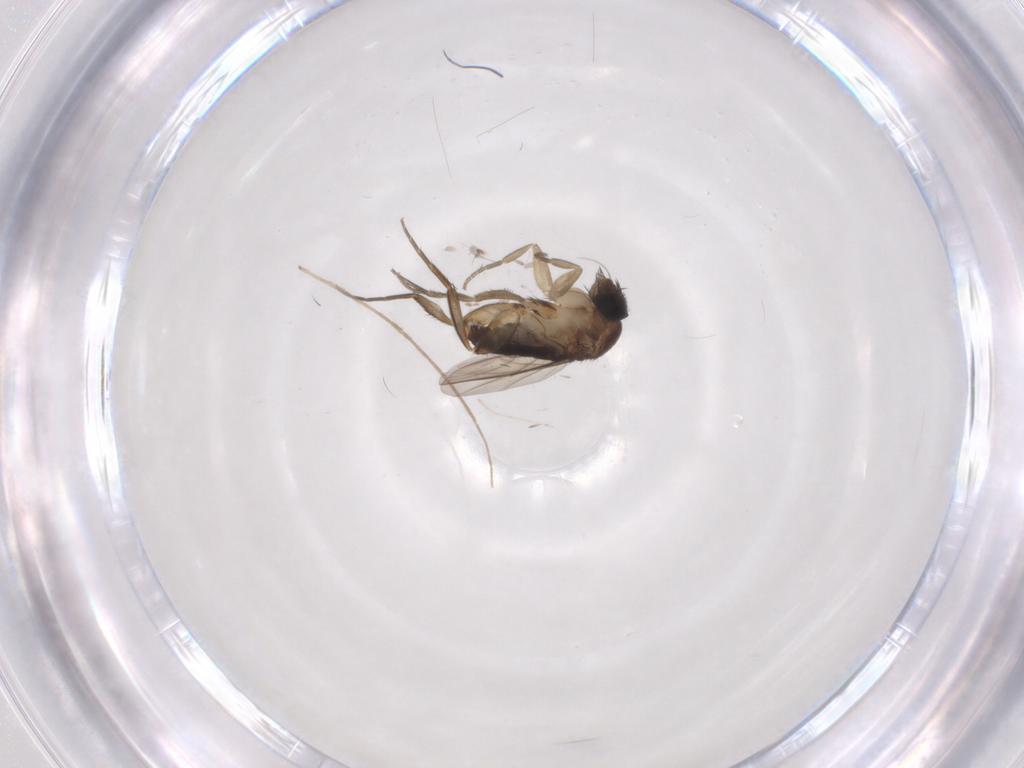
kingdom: Animalia
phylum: Arthropoda
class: Insecta
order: Diptera
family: Phoridae
